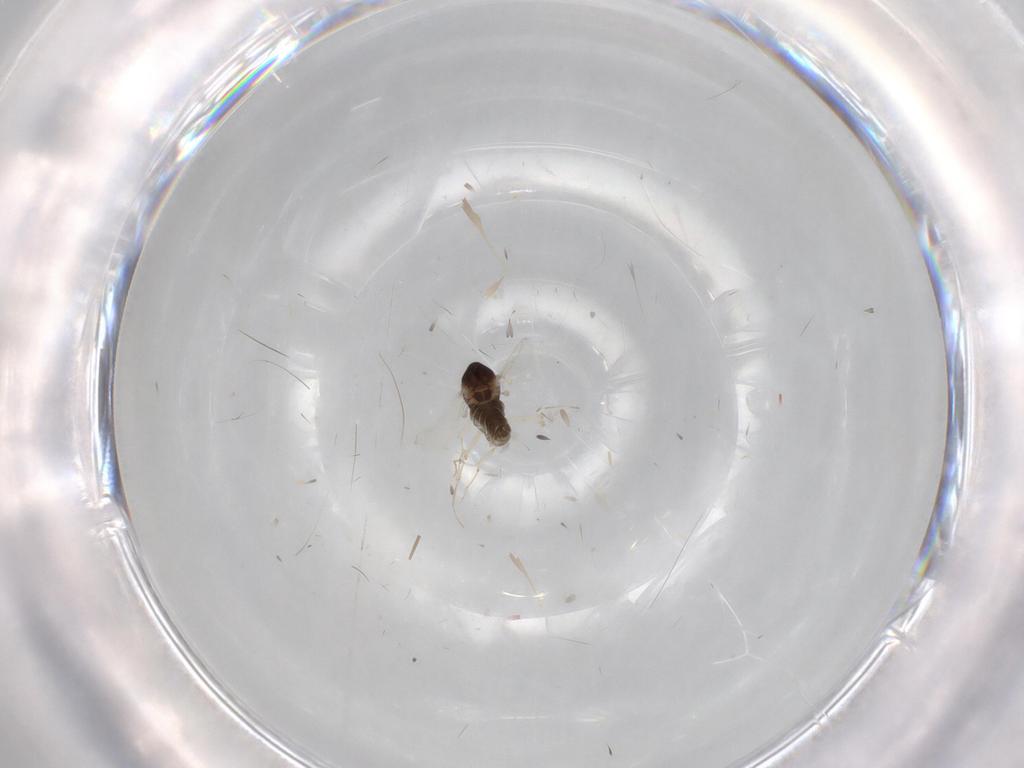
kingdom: Animalia
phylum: Arthropoda
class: Insecta
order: Diptera
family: Chironomidae
